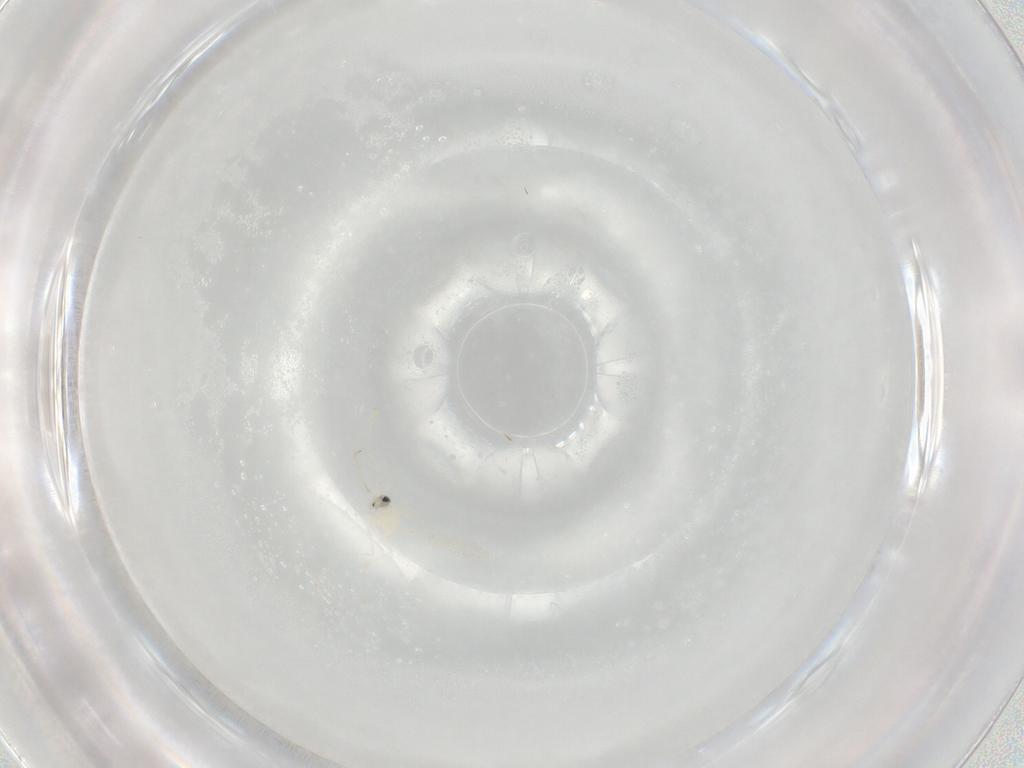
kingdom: Animalia
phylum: Arthropoda
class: Insecta
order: Diptera
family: Cecidomyiidae
